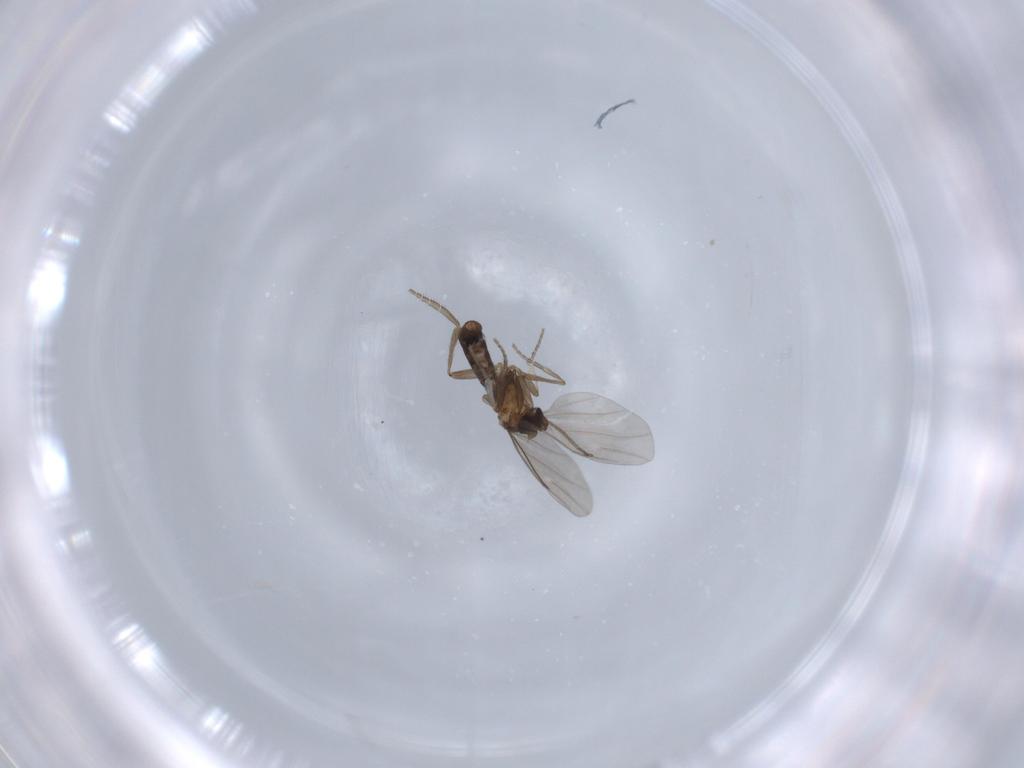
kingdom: Animalia
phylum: Arthropoda
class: Insecta
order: Diptera
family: Phoridae
